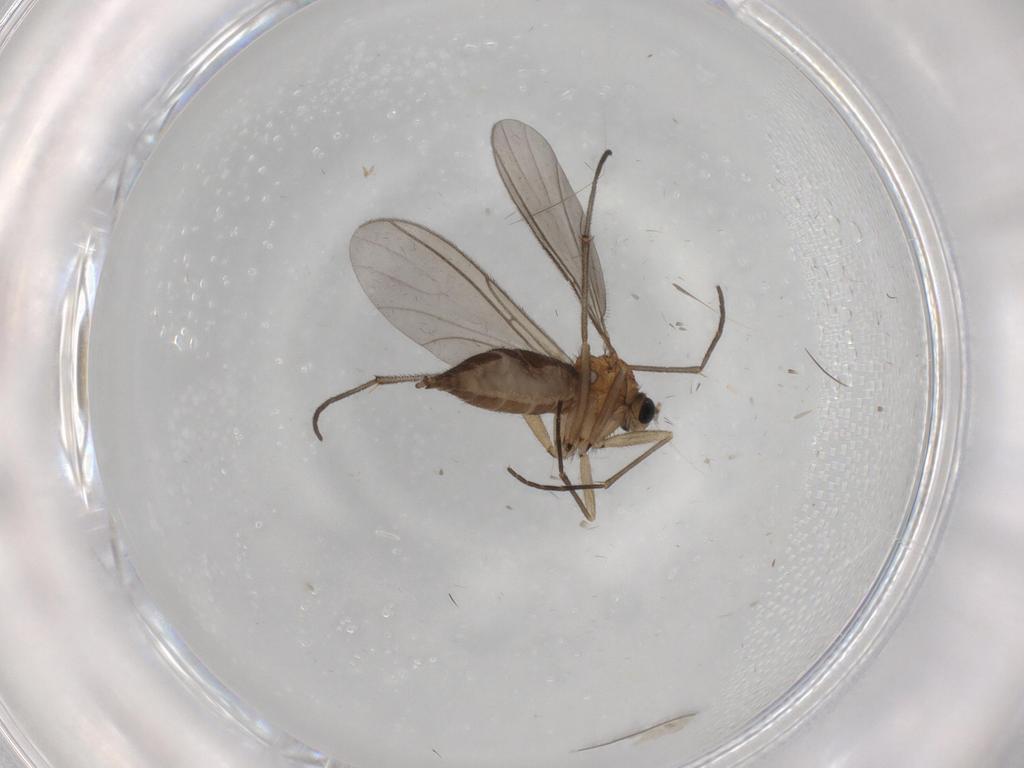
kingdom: Animalia
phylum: Arthropoda
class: Insecta
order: Diptera
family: Sciaridae
